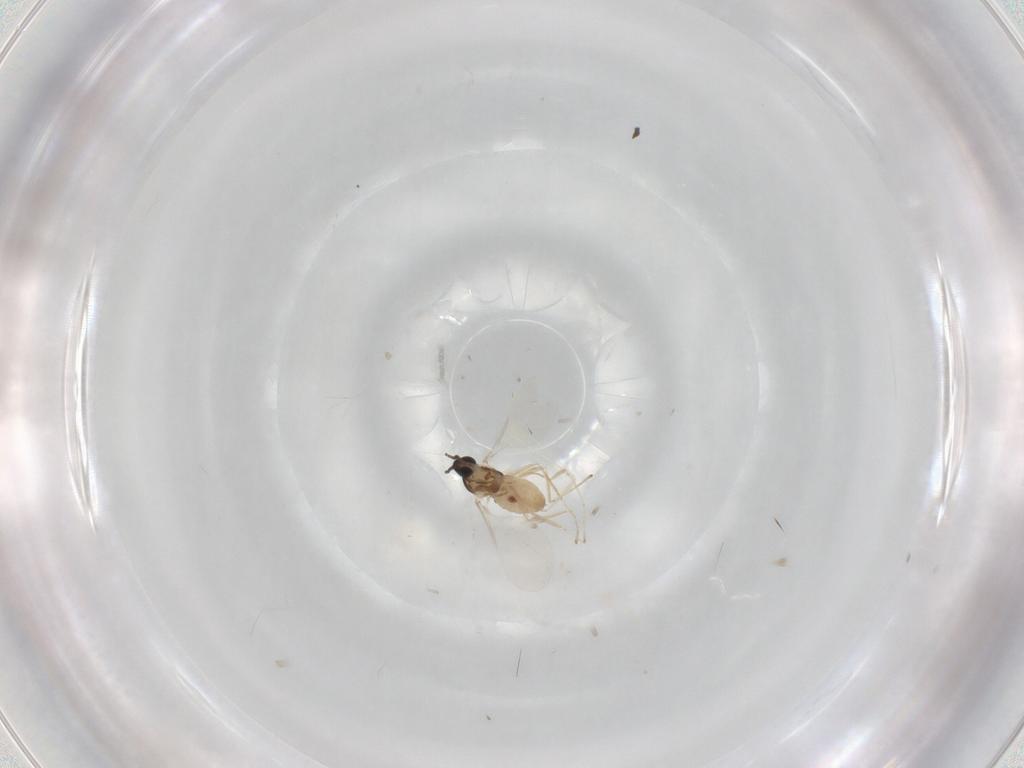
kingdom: Animalia
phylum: Arthropoda
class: Insecta
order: Diptera
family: Cecidomyiidae
